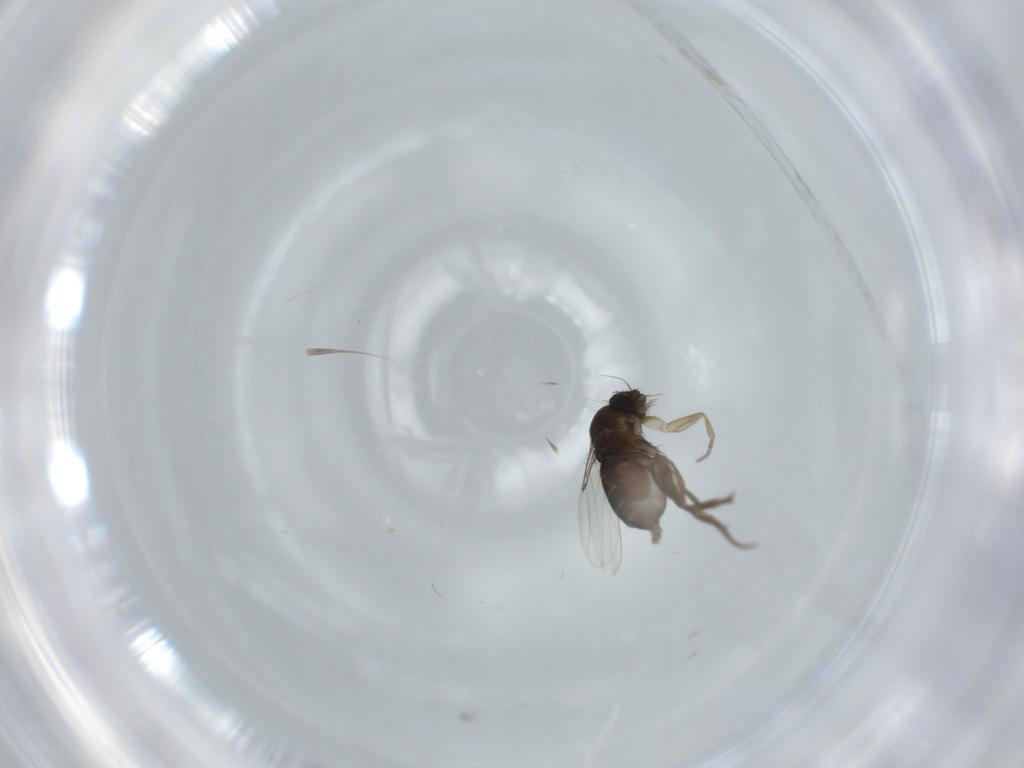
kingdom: Animalia
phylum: Arthropoda
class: Insecta
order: Diptera
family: Phoridae
